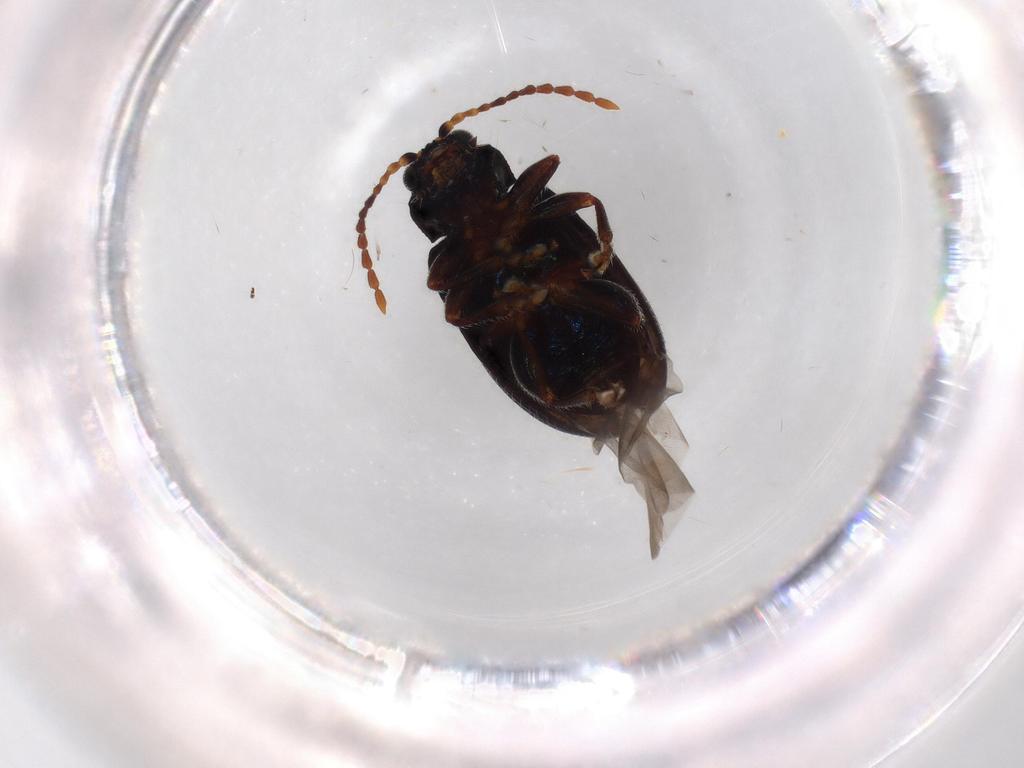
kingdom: Animalia
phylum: Arthropoda
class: Insecta
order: Coleoptera
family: Chrysomelidae
